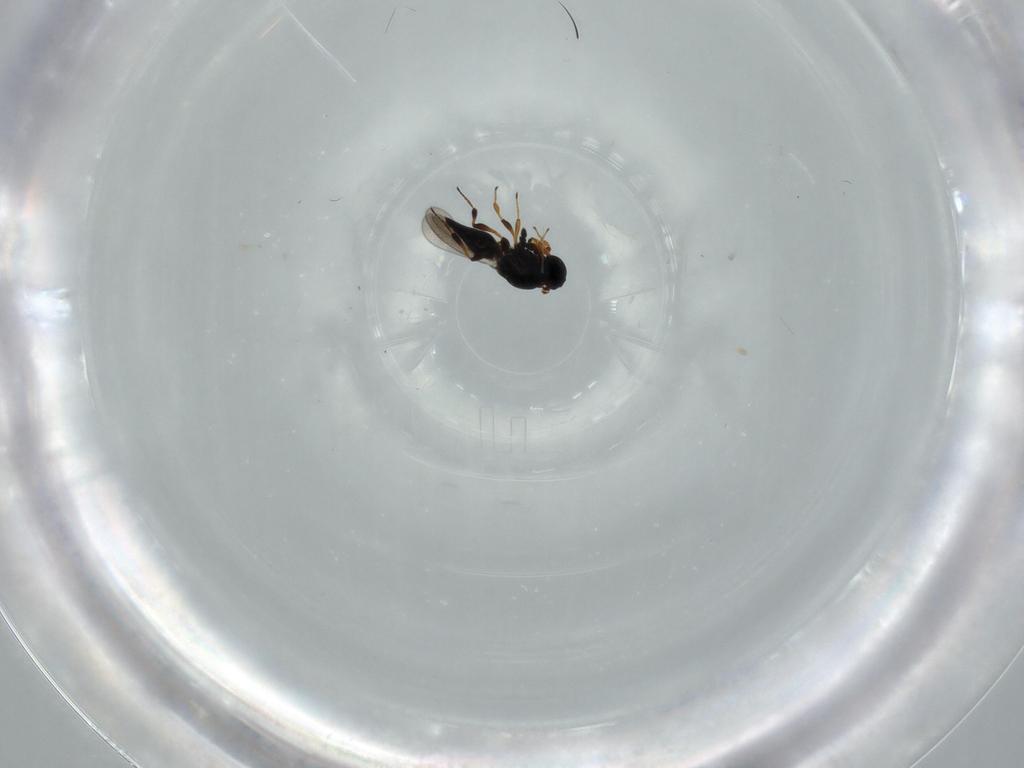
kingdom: Animalia
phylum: Arthropoda
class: Insecta
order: Hymenoptera
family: Platygastridae
